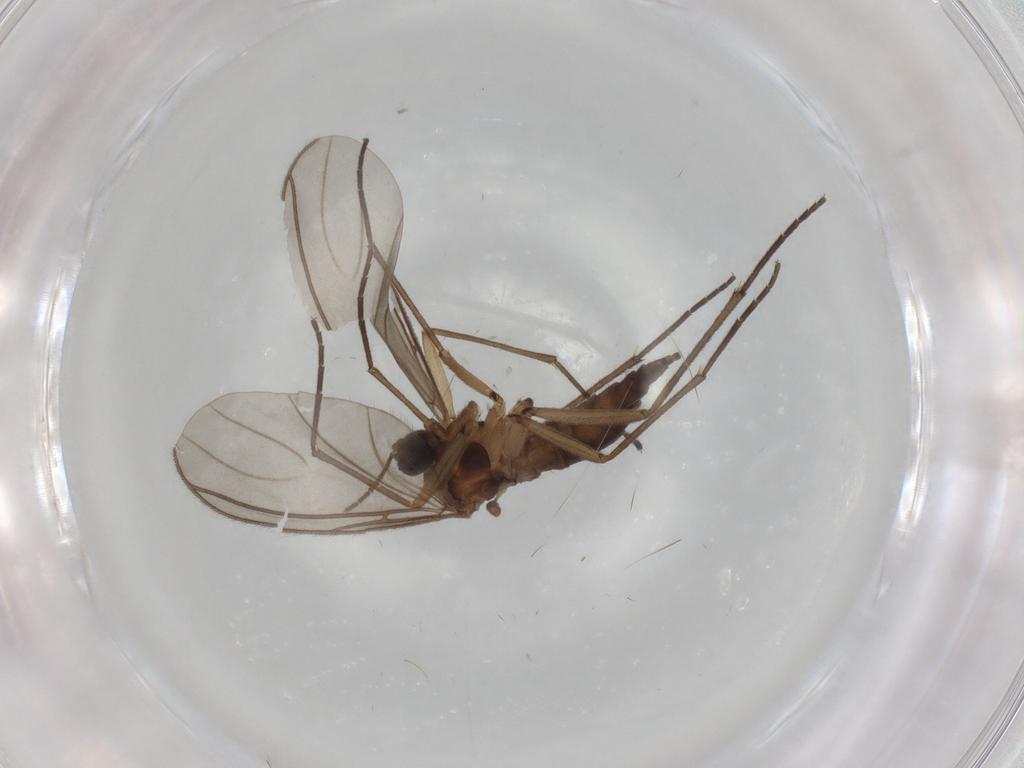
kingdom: Animalia
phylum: Arthropoda
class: Insecta
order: Diptera
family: Sciaridae
